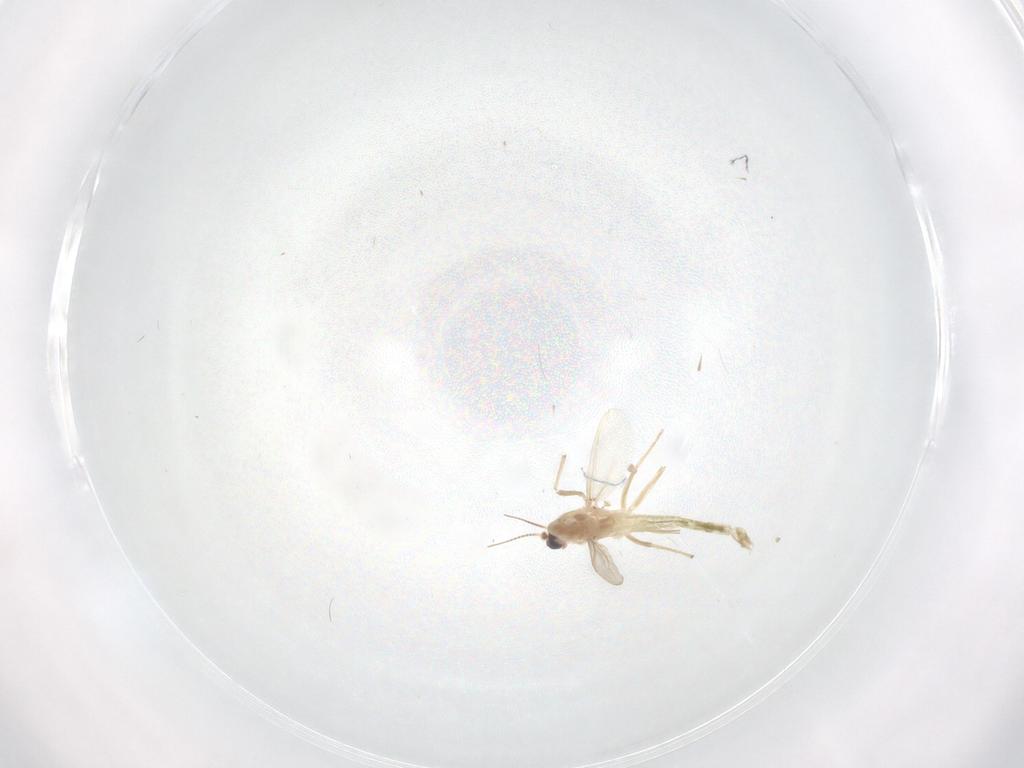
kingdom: Animalia
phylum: Arthropoda
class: Insecta
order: Diptera
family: Chironomidae
